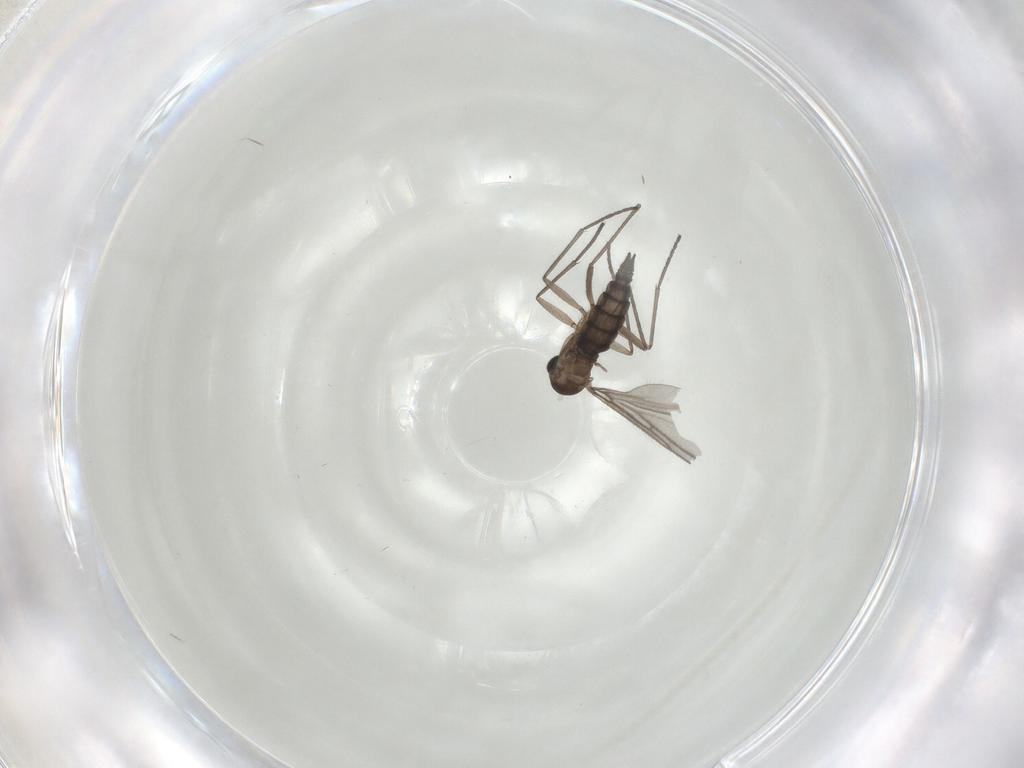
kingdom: Animalia
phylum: Arthropoda
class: Insecta
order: Diptera
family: Sciaridae
